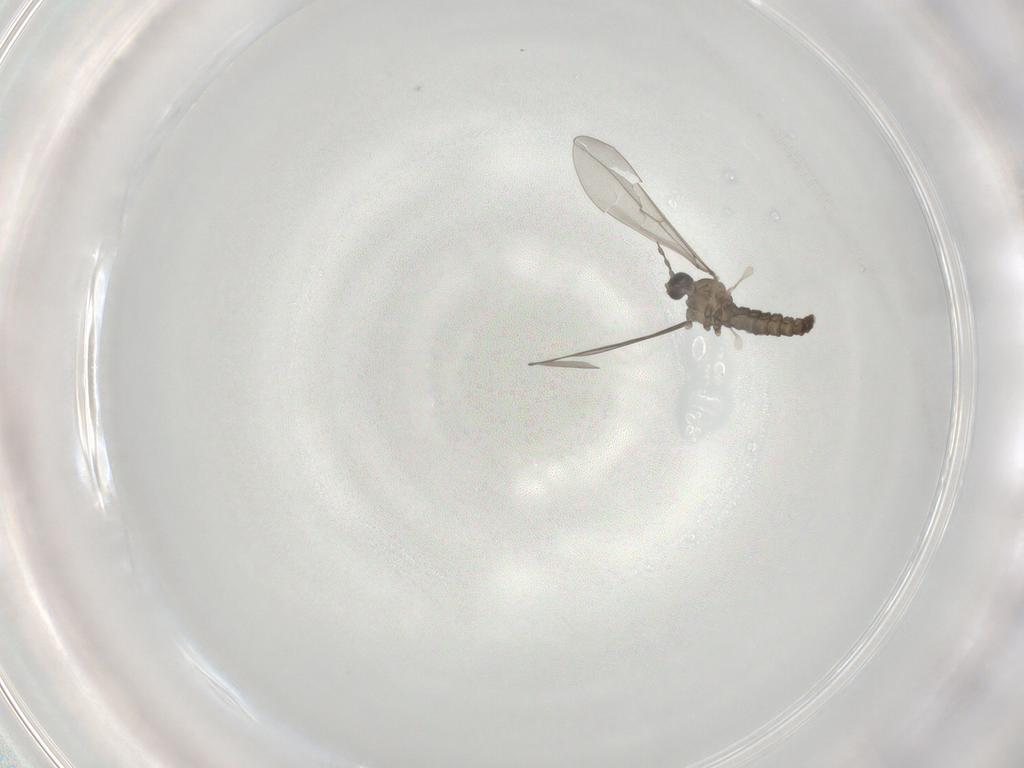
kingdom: Animalia
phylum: Arthropoda
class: Insecta
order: Diptera
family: Cecidomyiidae
